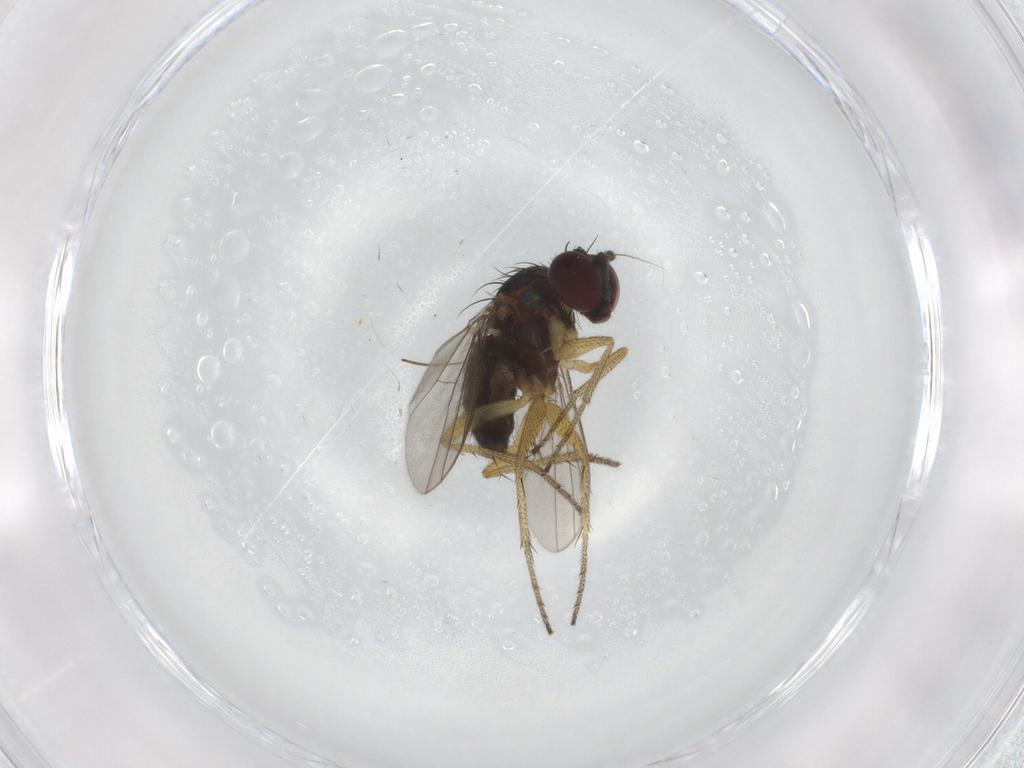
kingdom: Animalia
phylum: Arthropoda
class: Insecta
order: Diptera
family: Dolichopodidae
